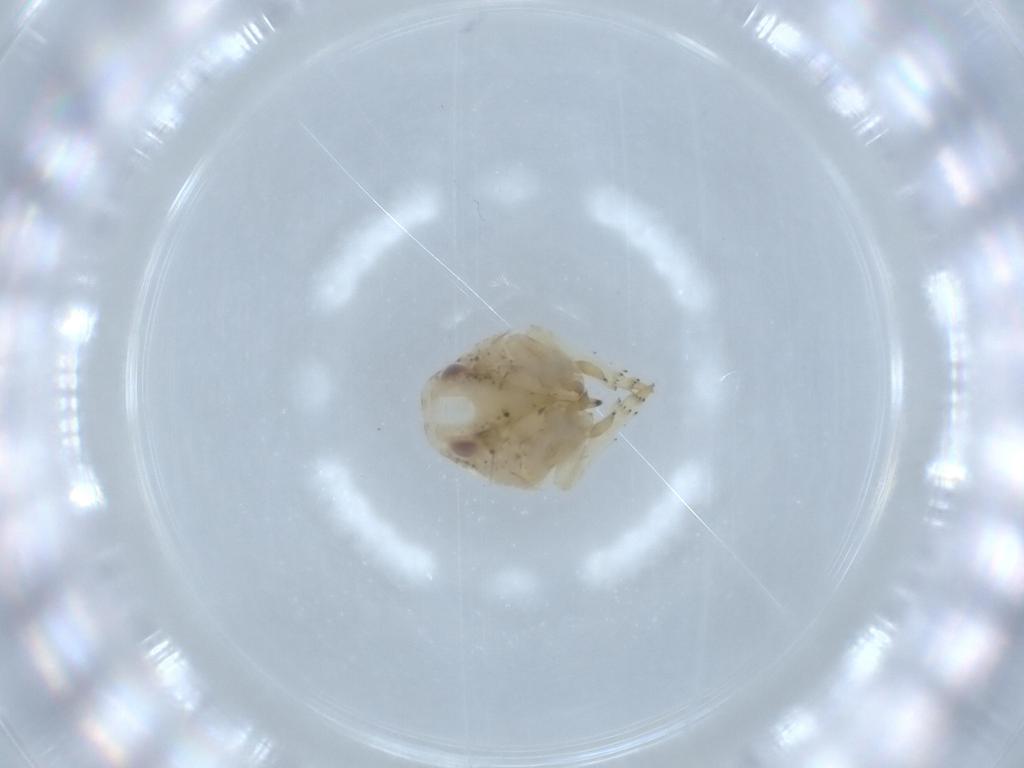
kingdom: Animalia
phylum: Arthropoda
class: Insecta
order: Hemiptera
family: Acanaloniidae
